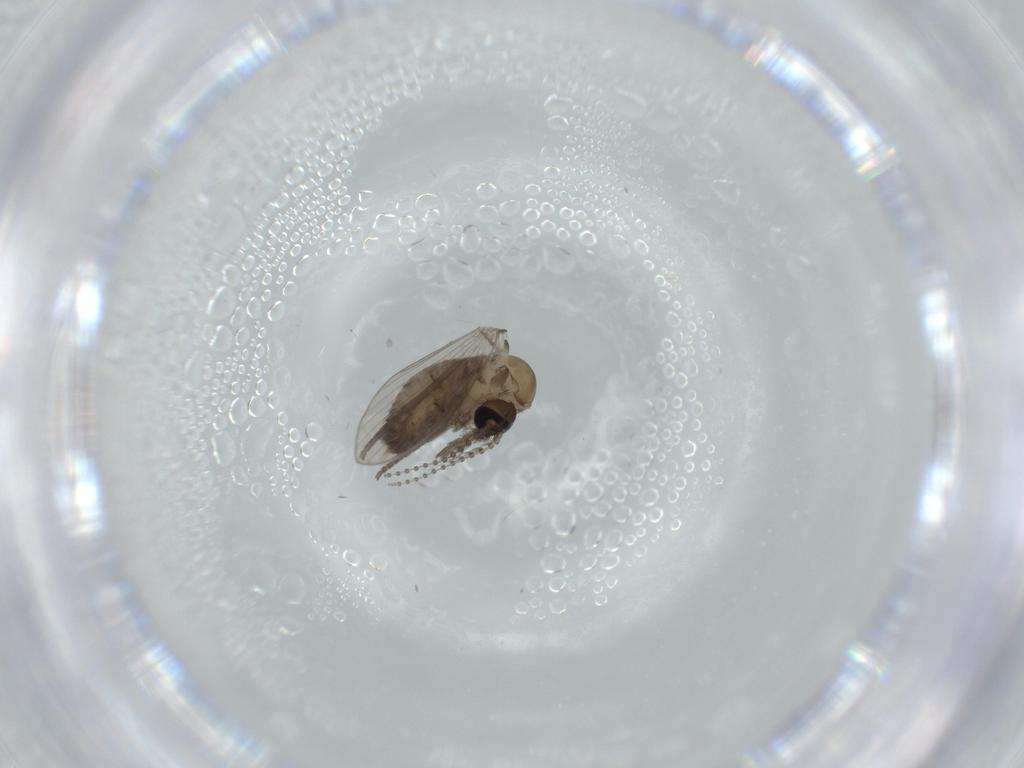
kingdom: Animalia
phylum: Arthropoda
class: Insecta
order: Diptera
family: Psychodidae
